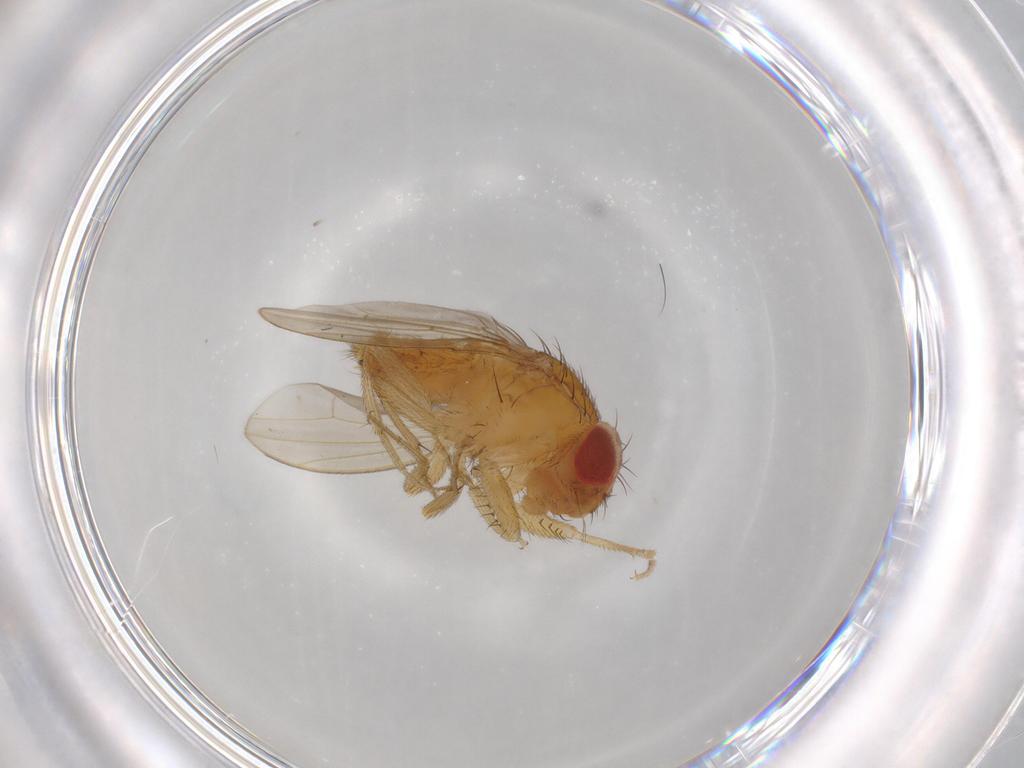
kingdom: Animalia
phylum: Arthropoda
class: Insecta
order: Diptera
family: Drosophilidae
